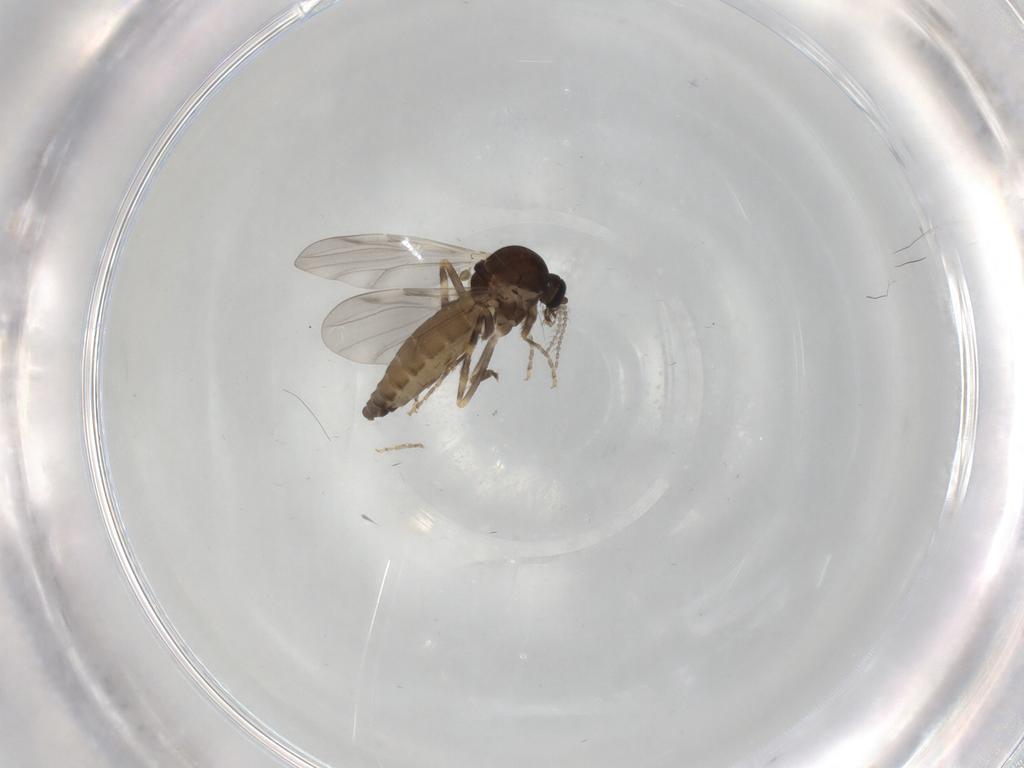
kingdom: Animalia
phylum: Arthropoda
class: Insecta
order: Diptera
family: Ceratopogonidae
